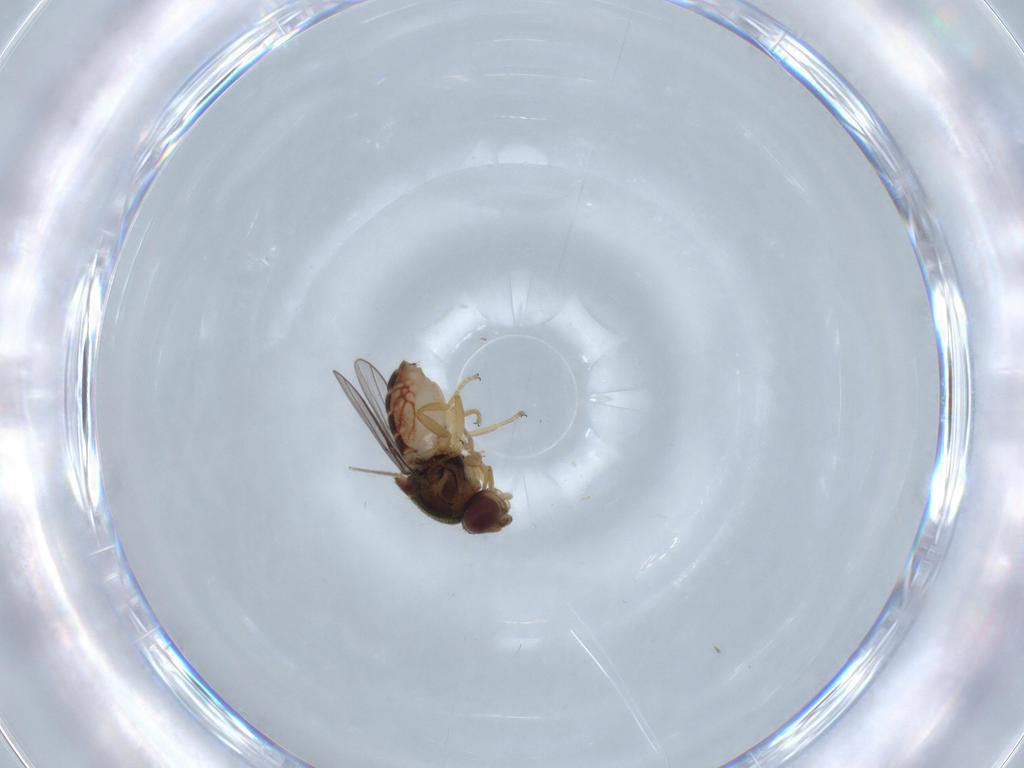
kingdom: Animalia
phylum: Arthropoda
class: Insecta
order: Diptera
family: Chloropidae
